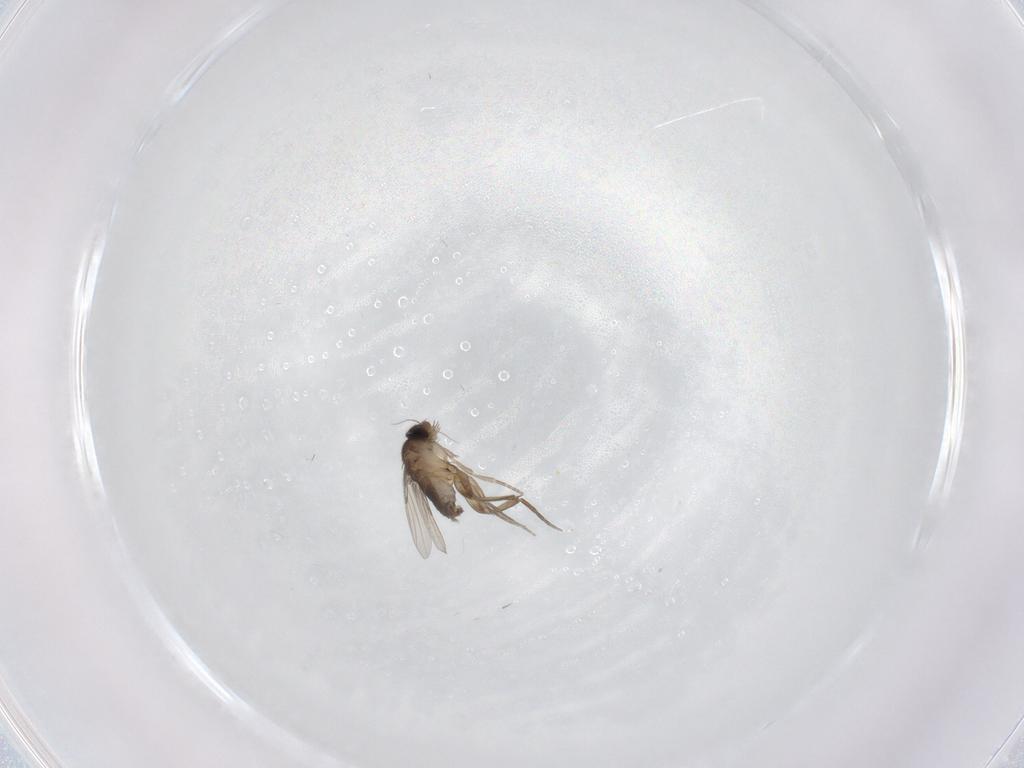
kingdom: Animalia
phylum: Arthropoda
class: Insecta
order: Diptera
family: Phoridae
